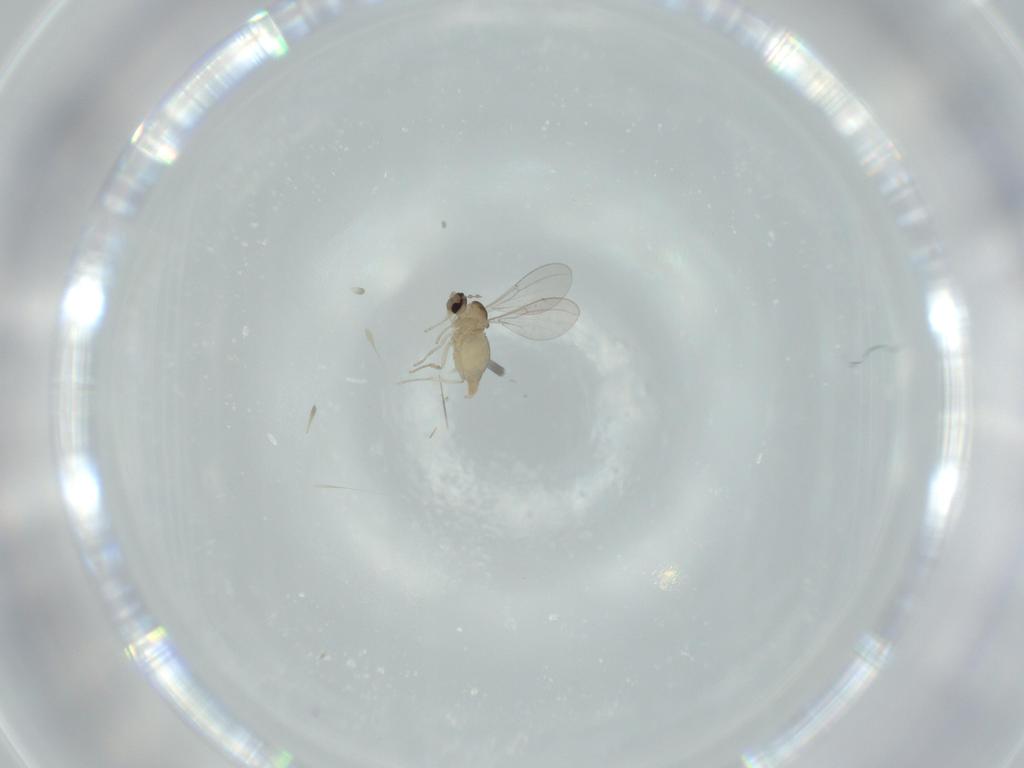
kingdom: Animalia
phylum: Arthropoda
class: Insecta
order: Diptera
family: Cecidomyiidae
